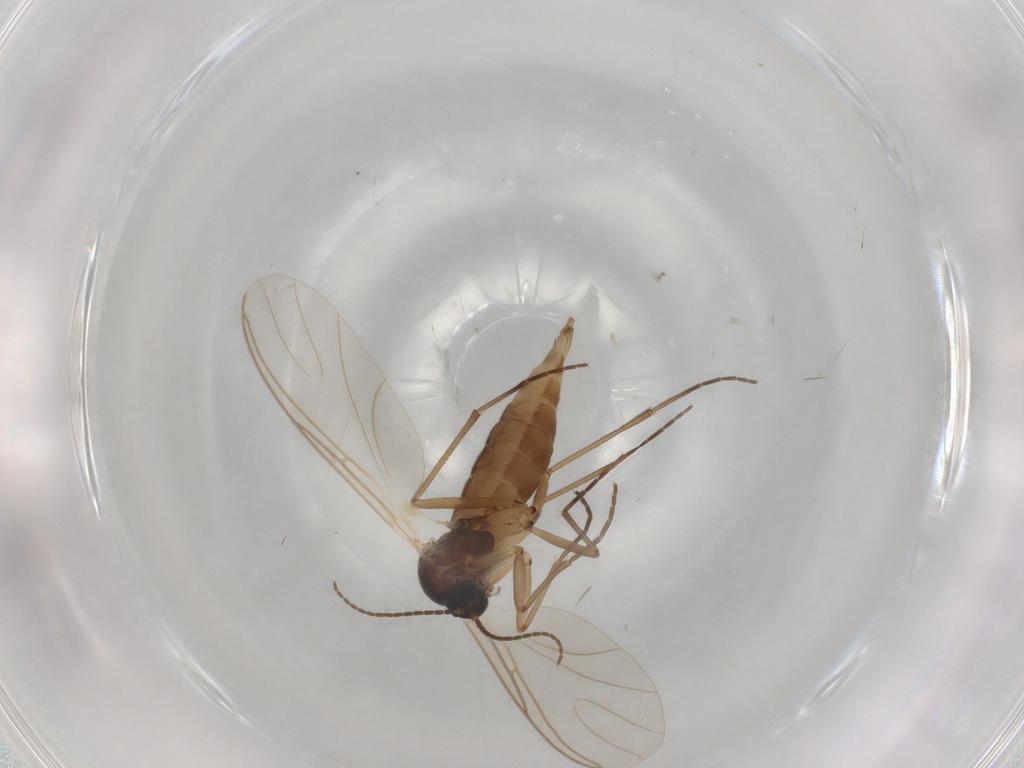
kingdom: Animalia
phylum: Arthropoda
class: Insecta
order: Diptera
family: Sciaridae
